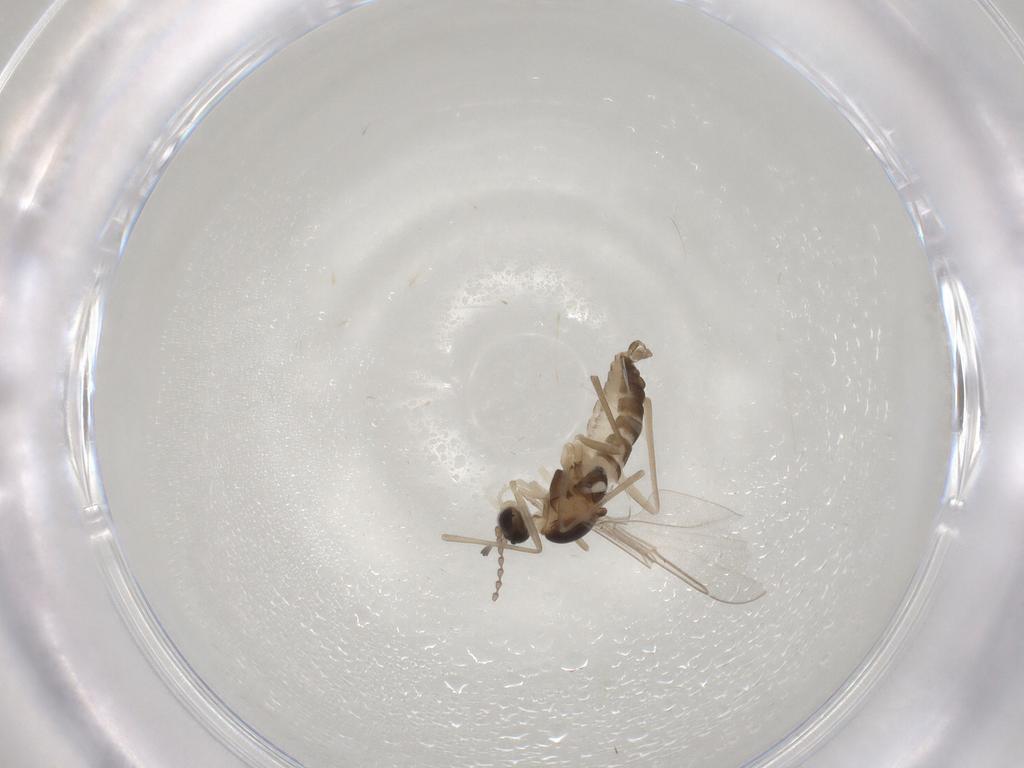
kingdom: Animalia
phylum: Arthropoda
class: Insecta
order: Diptera
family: Cecidomyiidae
